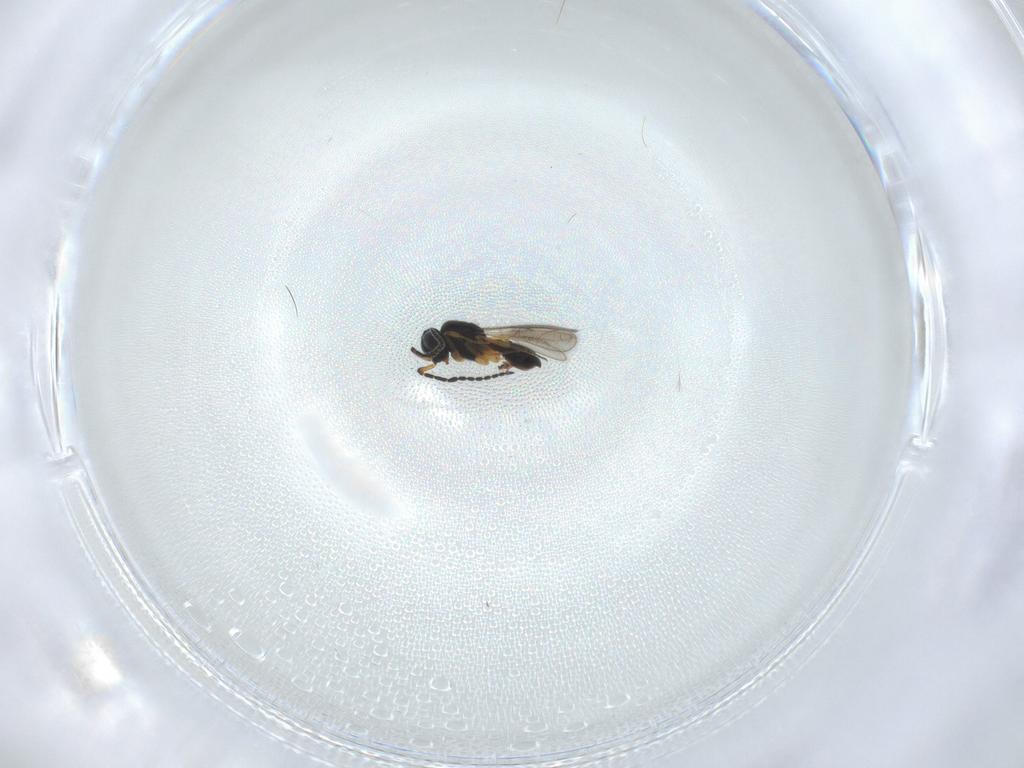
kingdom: Animalia
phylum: Arthropoda
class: Insecta
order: Hymenoptera
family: Scelionidae
